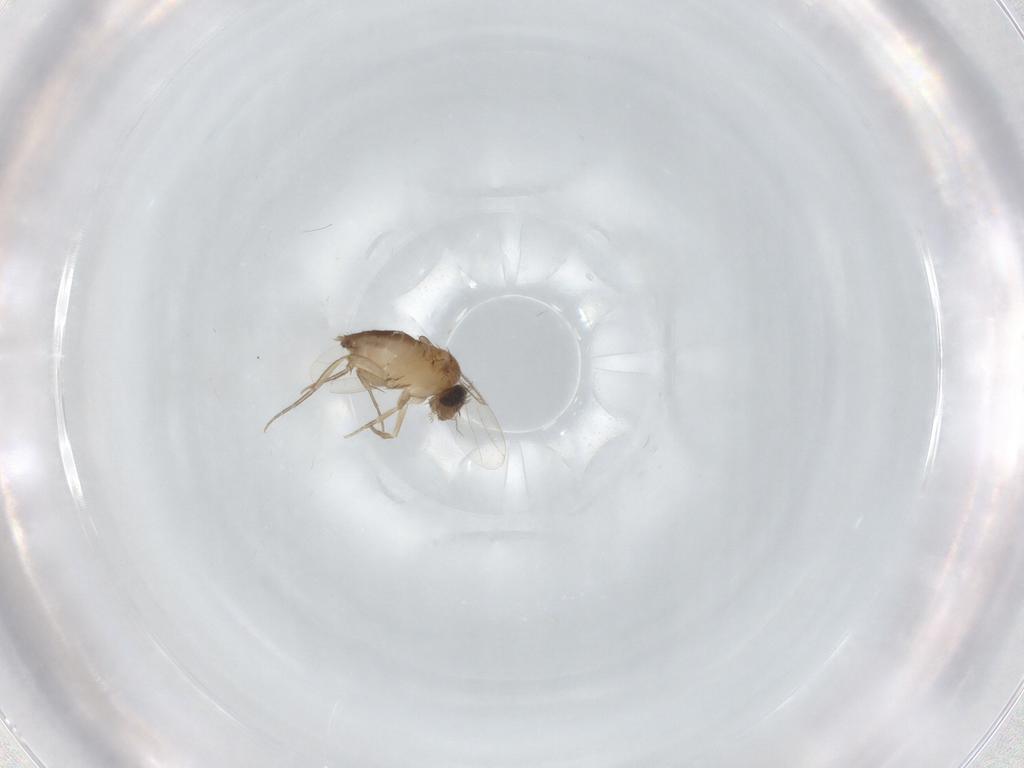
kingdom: Animalia
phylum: Arthropoda
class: Insecta
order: Diptera
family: Phoridae
